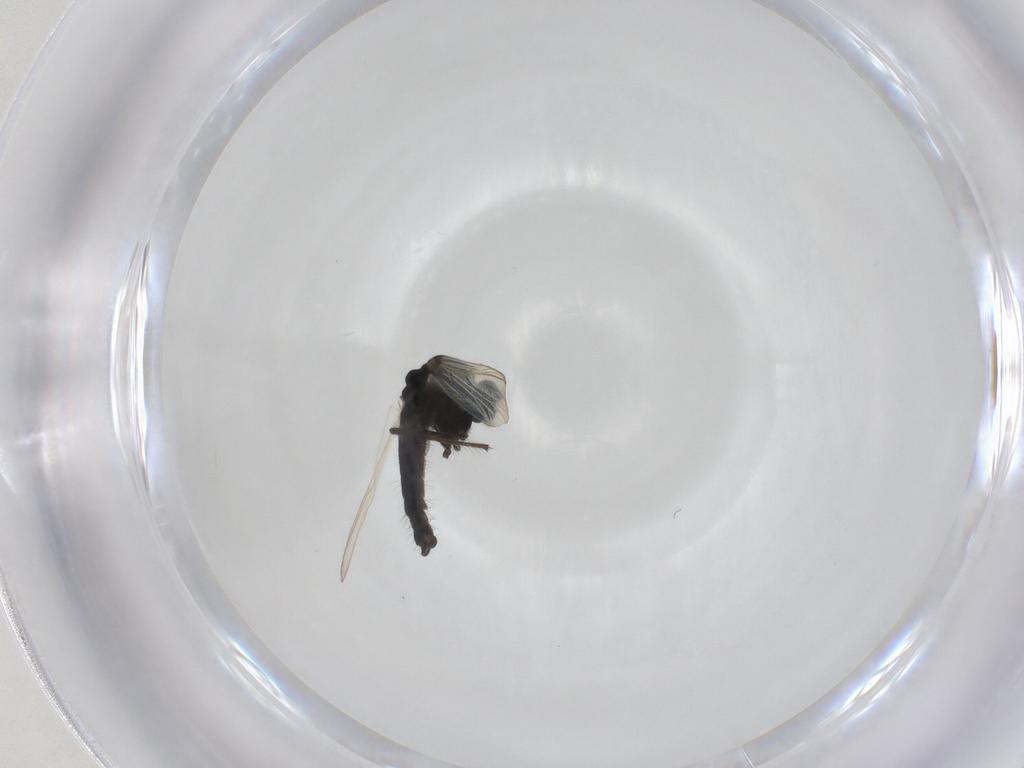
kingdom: Animalia
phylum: Arthropoda
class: Insecta
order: Diptera
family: Chironomidae
